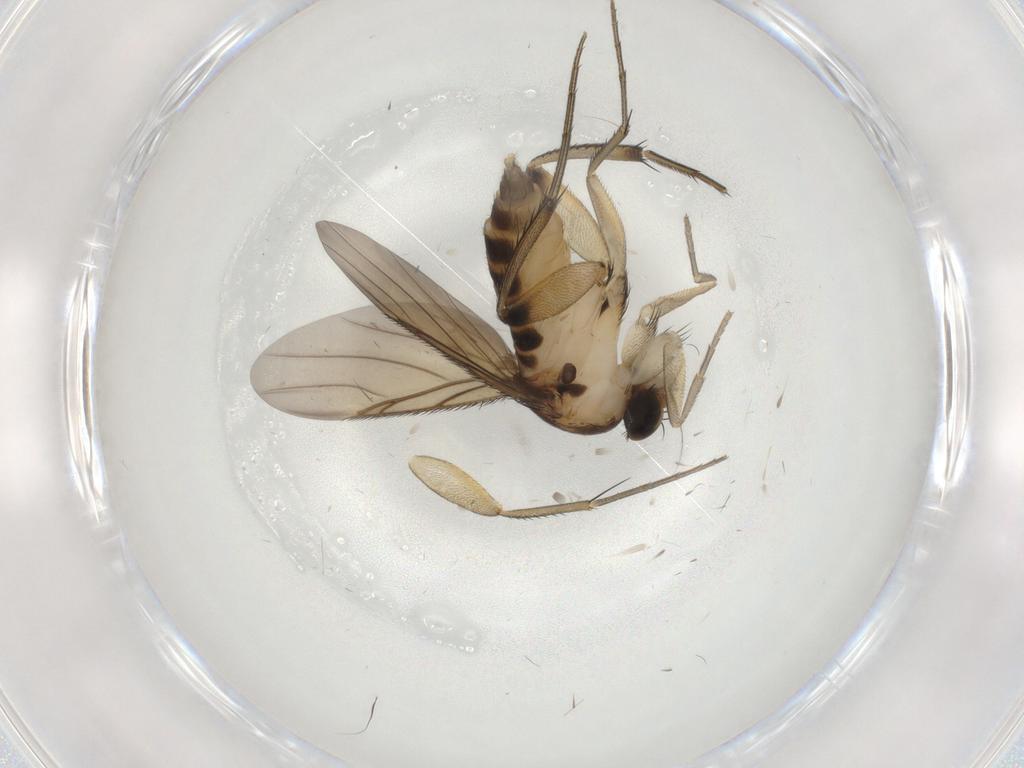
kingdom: Animalia
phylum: Arthropoda
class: Insecta
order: Diptera
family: Phoridae
